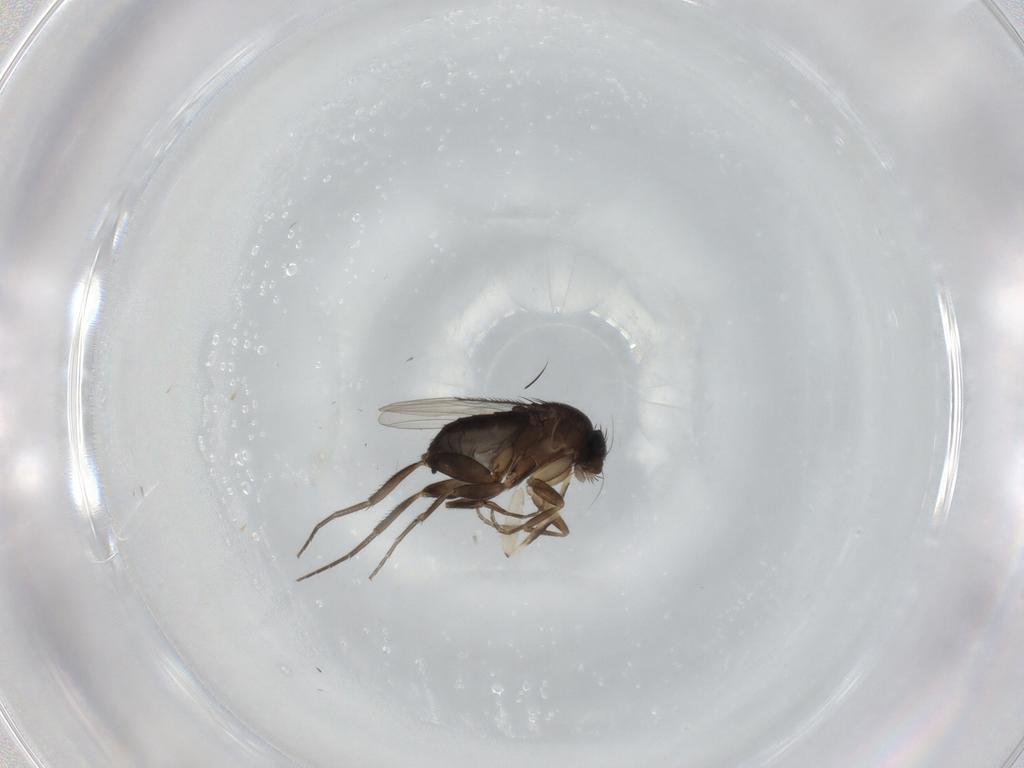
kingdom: Animalia
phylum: Arthropoda
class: Insecta
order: Diptera
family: Phoridae
